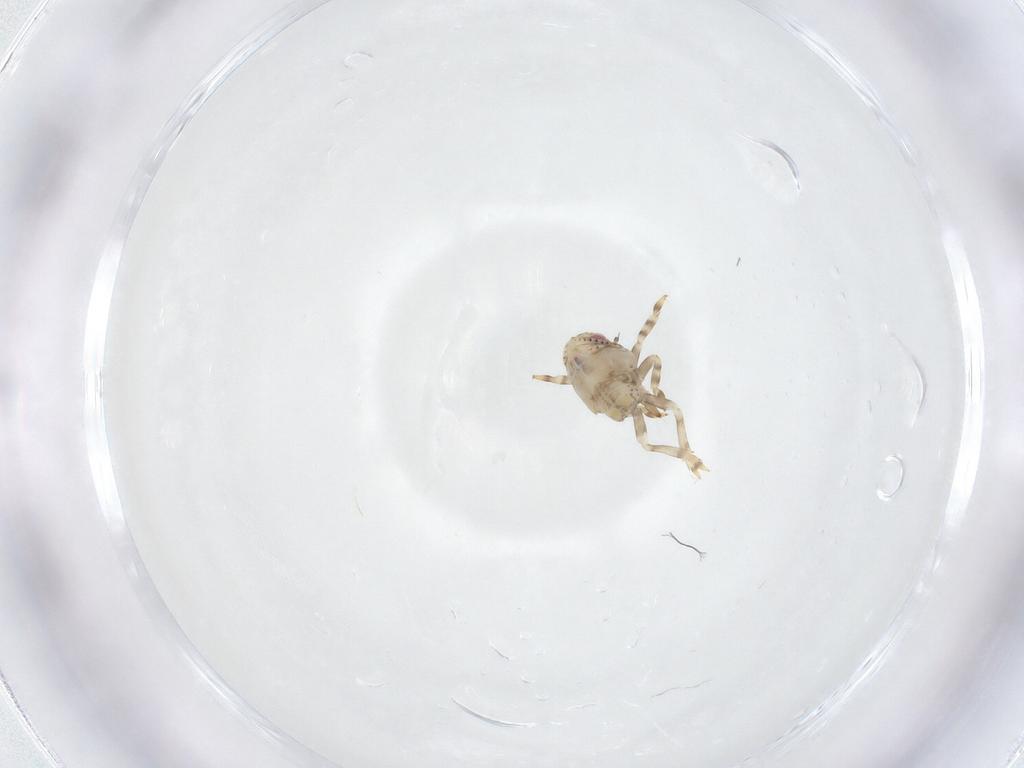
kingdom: Animalia
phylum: Arthropoda
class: Insecta
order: Hemiptera
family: Acanaloniidae
